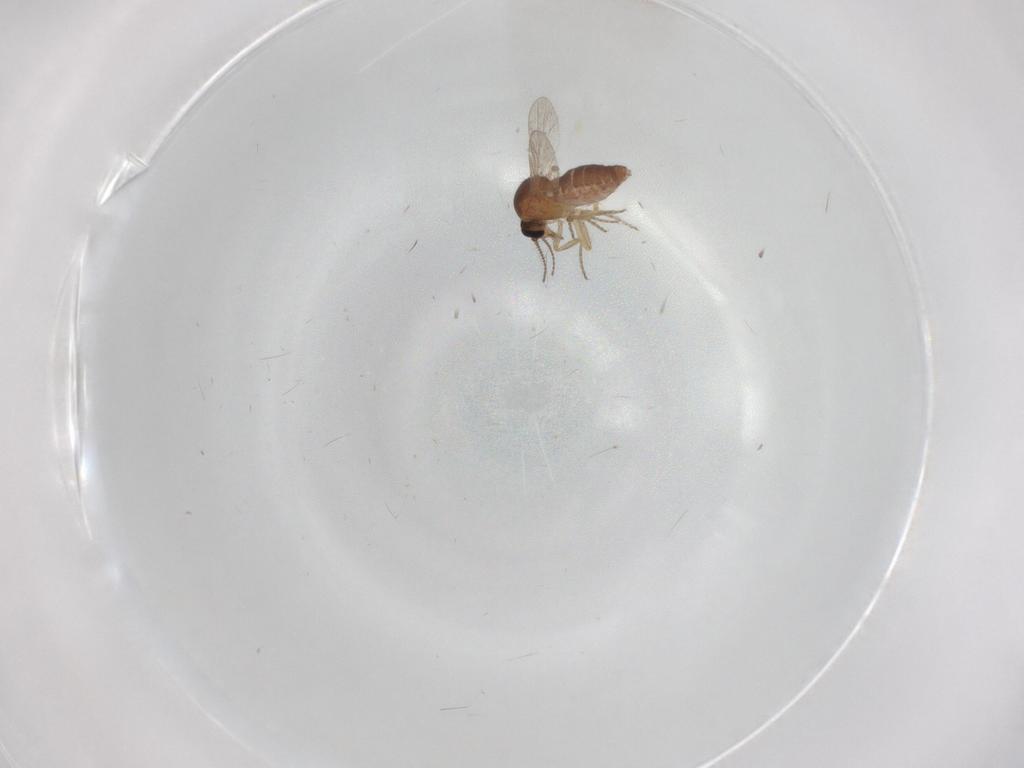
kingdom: Animalia
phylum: Arthropoda
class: Insecta
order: Diptera
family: Ceratopogonidae
